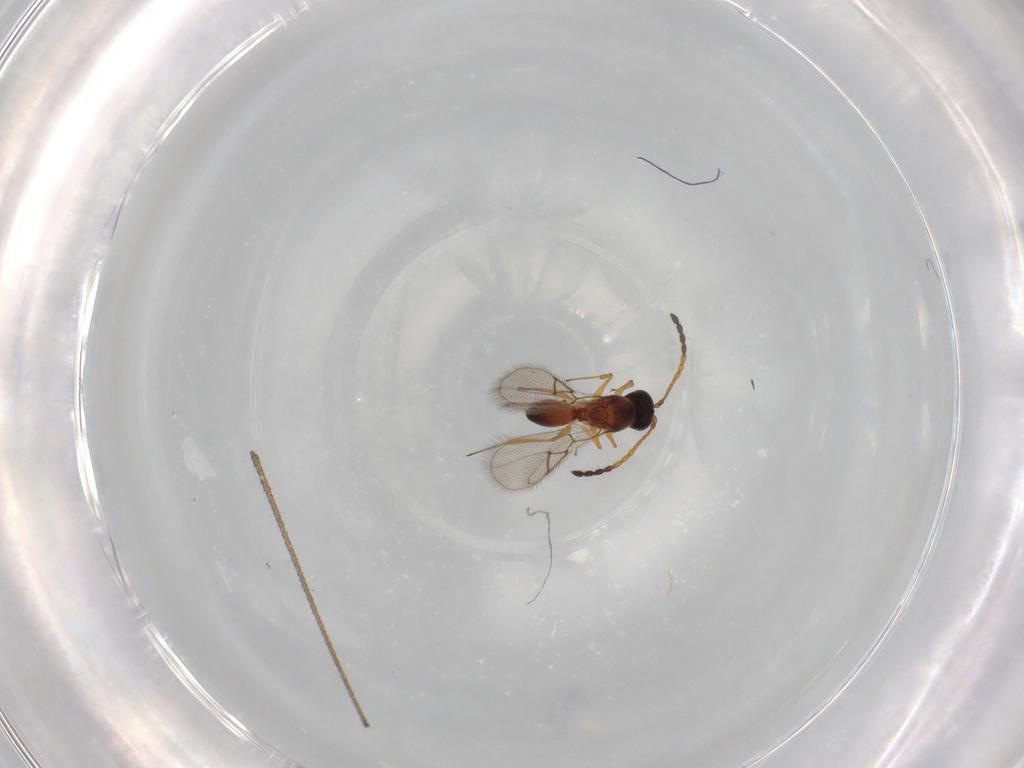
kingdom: Animalia
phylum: Arthropoda
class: Insecta
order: Hymenoptera
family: Figitidae
